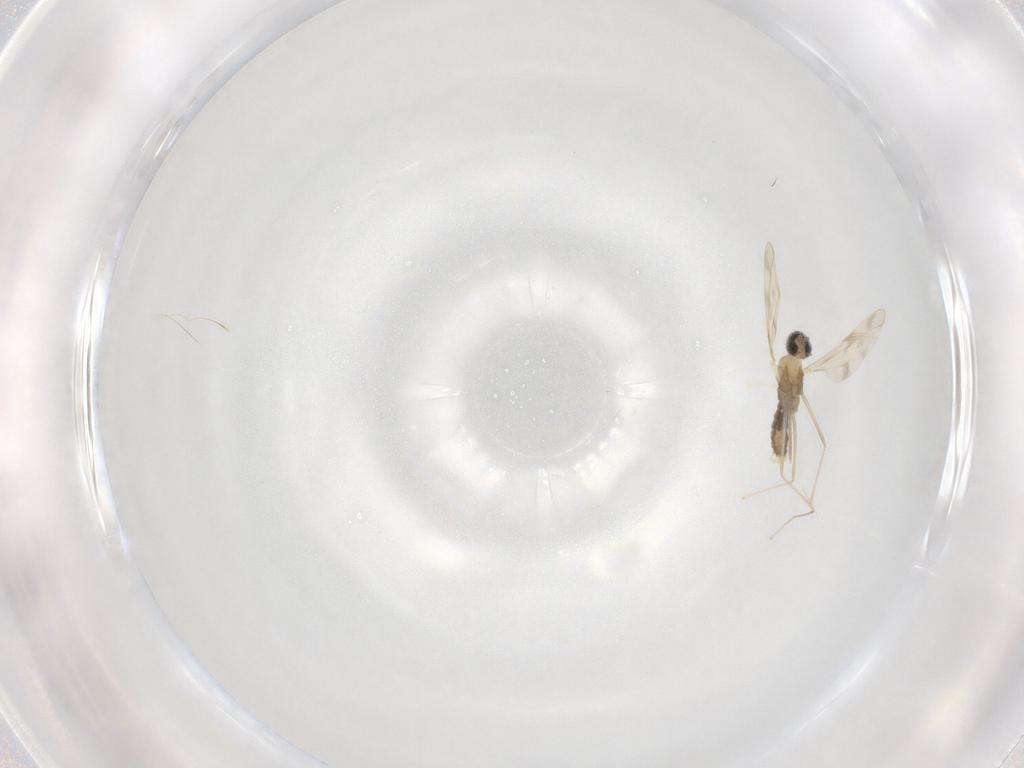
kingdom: Animalia
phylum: Arthropoda
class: Insecta
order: Diptera
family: Cecidomyiidae
